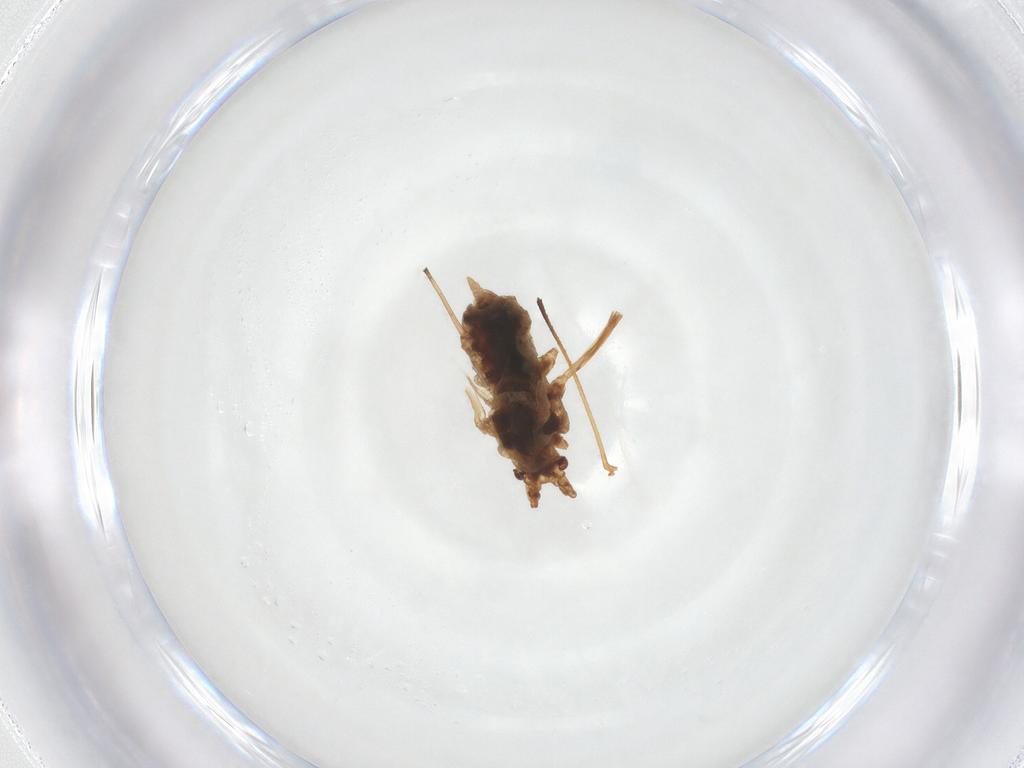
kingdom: Animalia
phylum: Arthropoda
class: Insecta
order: Hemiptera
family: Aphididae
